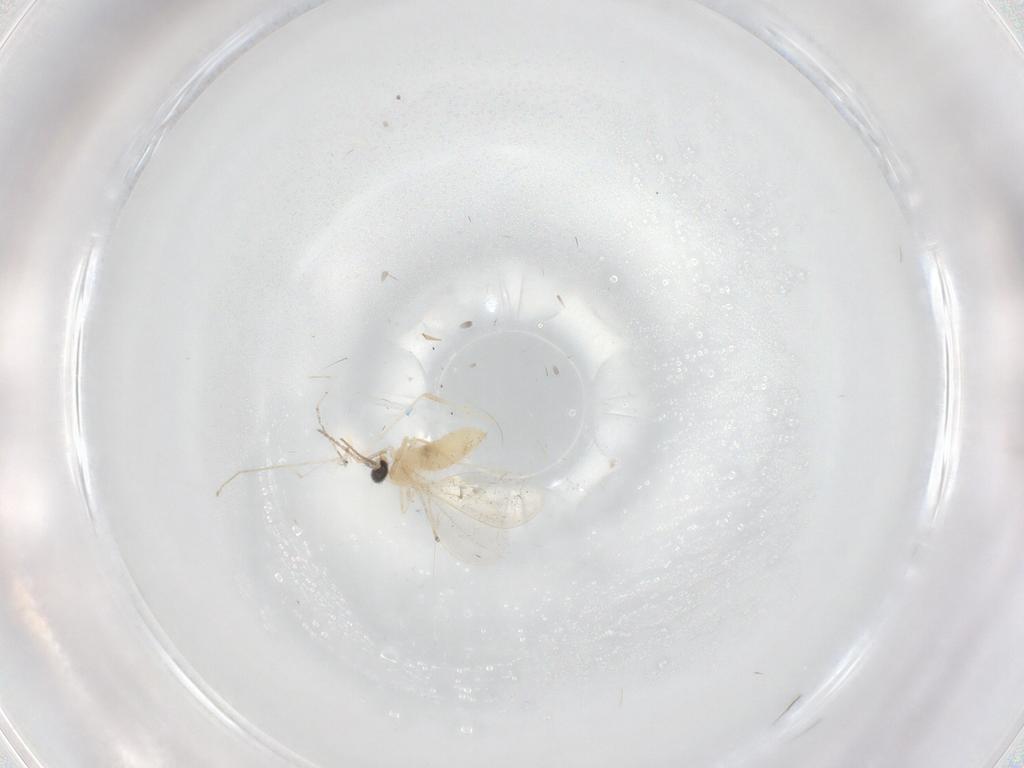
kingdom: Animalia
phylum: Arthropoda
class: Insecta
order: Diptera
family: Cecidomyiidae
